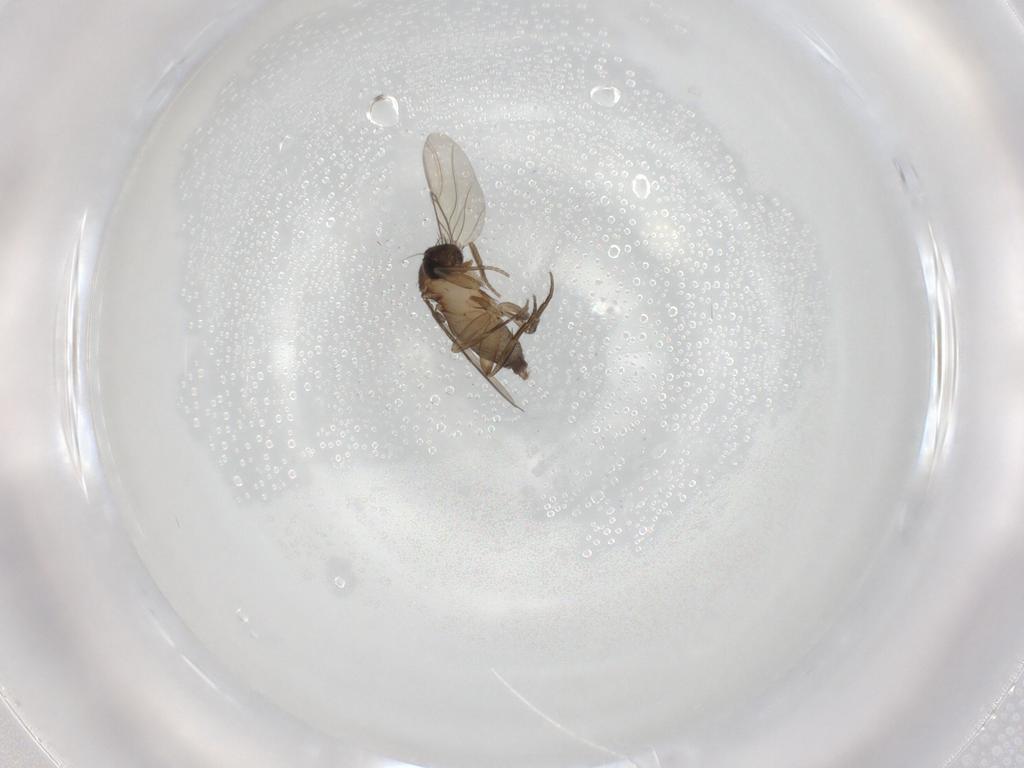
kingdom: Animalia
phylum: Arthropoda
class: Insecta
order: Diptera
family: Phoridae
